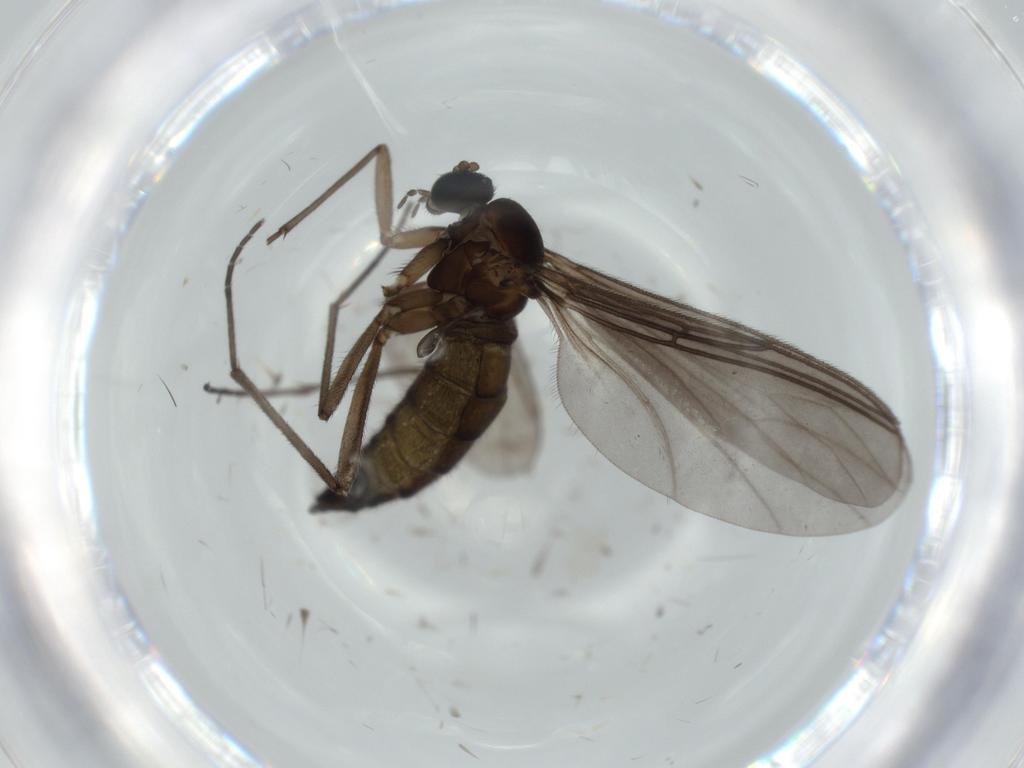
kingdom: Animalia
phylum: Arthropoda
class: Insecta
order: Diptera
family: Sciaridae
